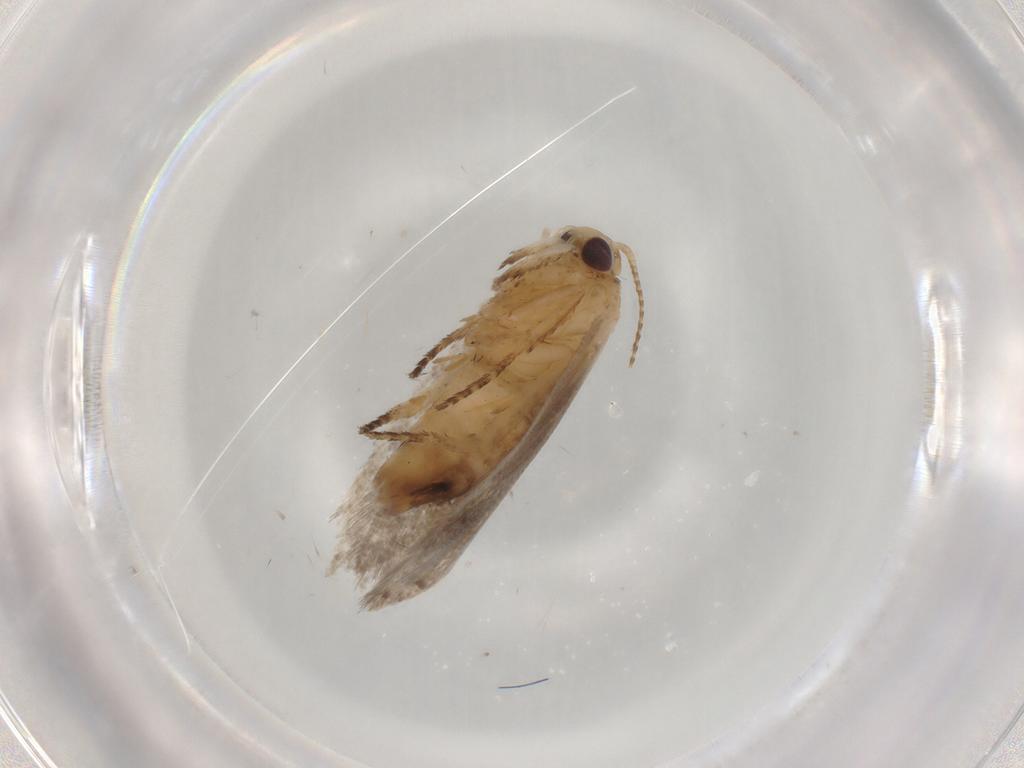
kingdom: Animalia
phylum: Arthropoda
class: Insecta
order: Lepidoptera
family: Plutellidae
